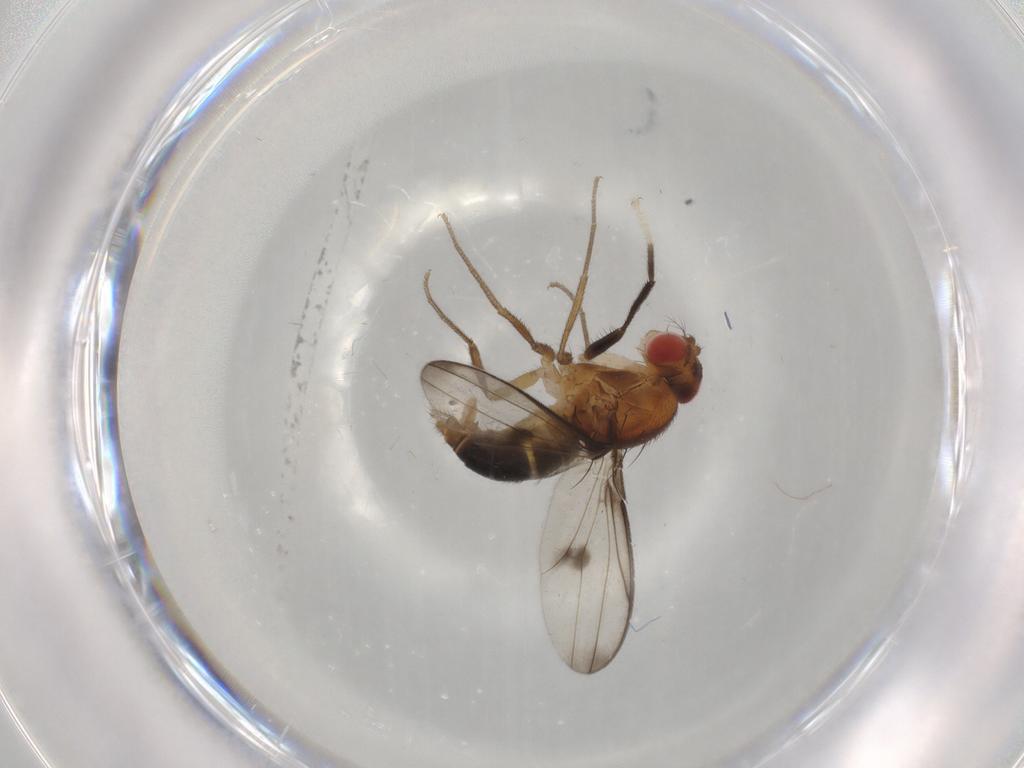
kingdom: Animalia
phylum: Arthropoda
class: Insecta
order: Diptera
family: Drosophilidae
